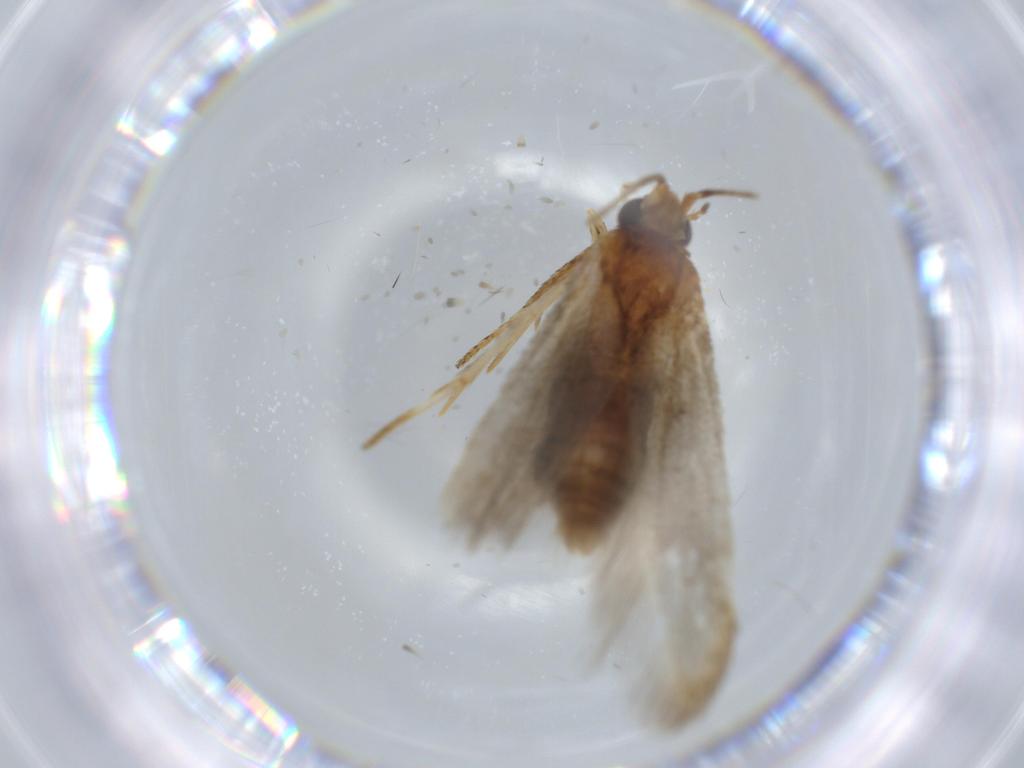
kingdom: Animalia
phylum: Arthropoda
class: Insecta
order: Lepidoptera
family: Blastobasidae
